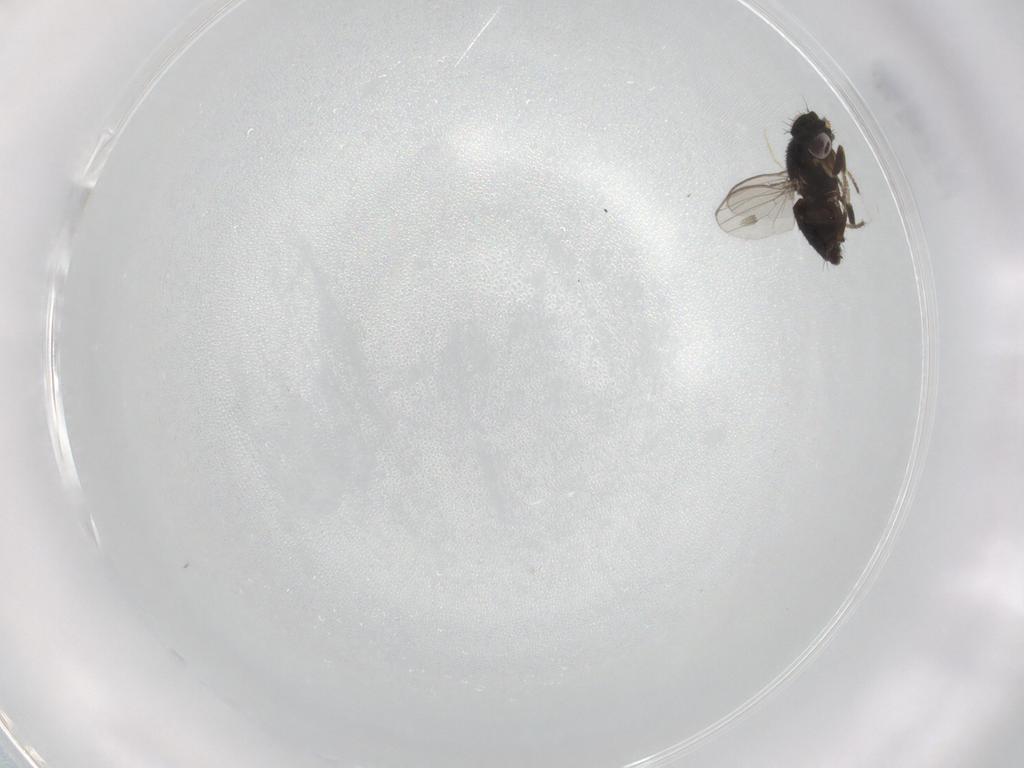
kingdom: Animalia
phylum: Arthropoda
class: Insecta
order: Diptera
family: Milichiidae
